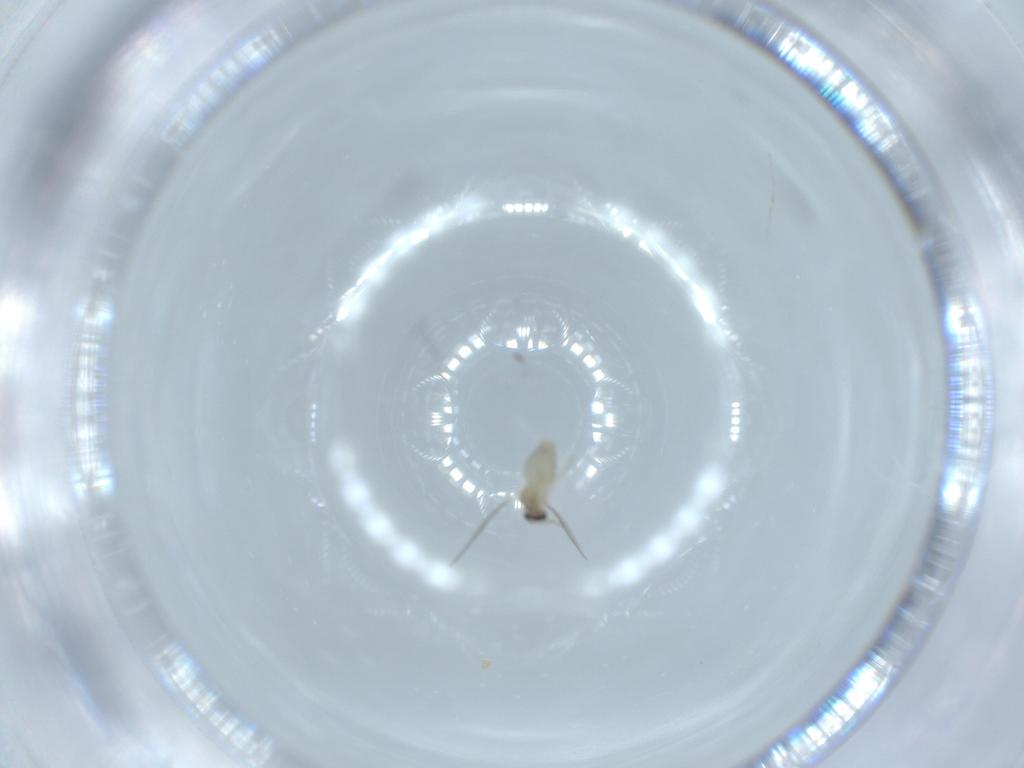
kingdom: Animalia
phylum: Arthropoda
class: Insecta
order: Diptera
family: Cecidomyiidae
